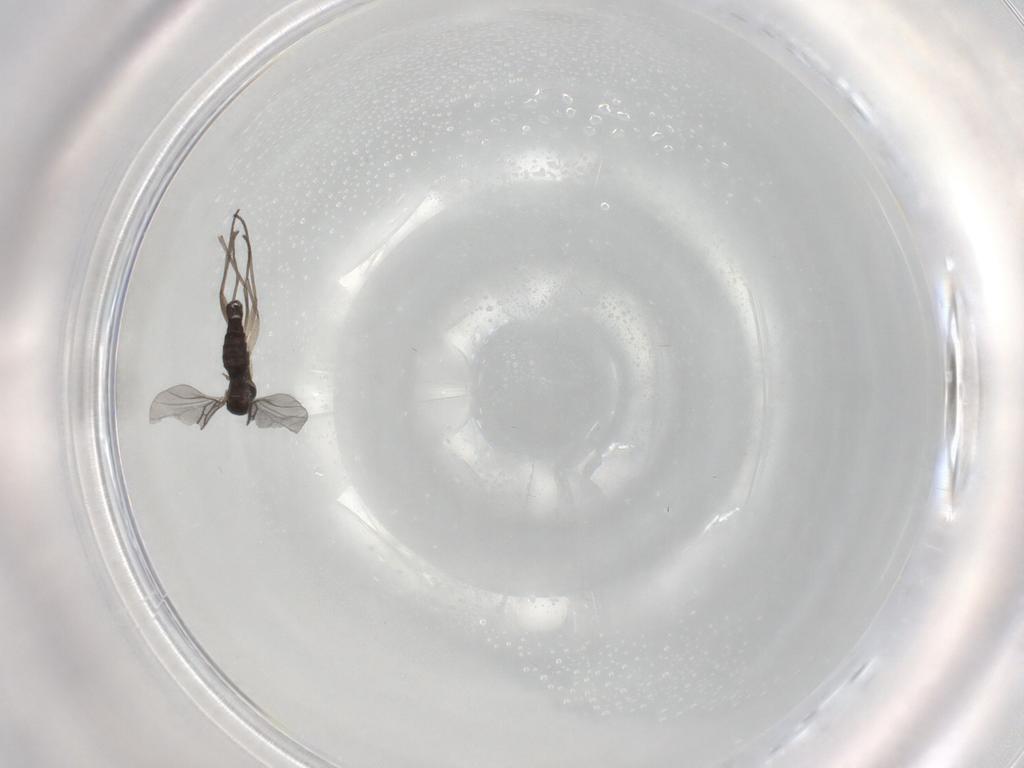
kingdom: Animalia
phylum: Arthropoda
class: Insecta
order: Diptera
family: Sciaridae
